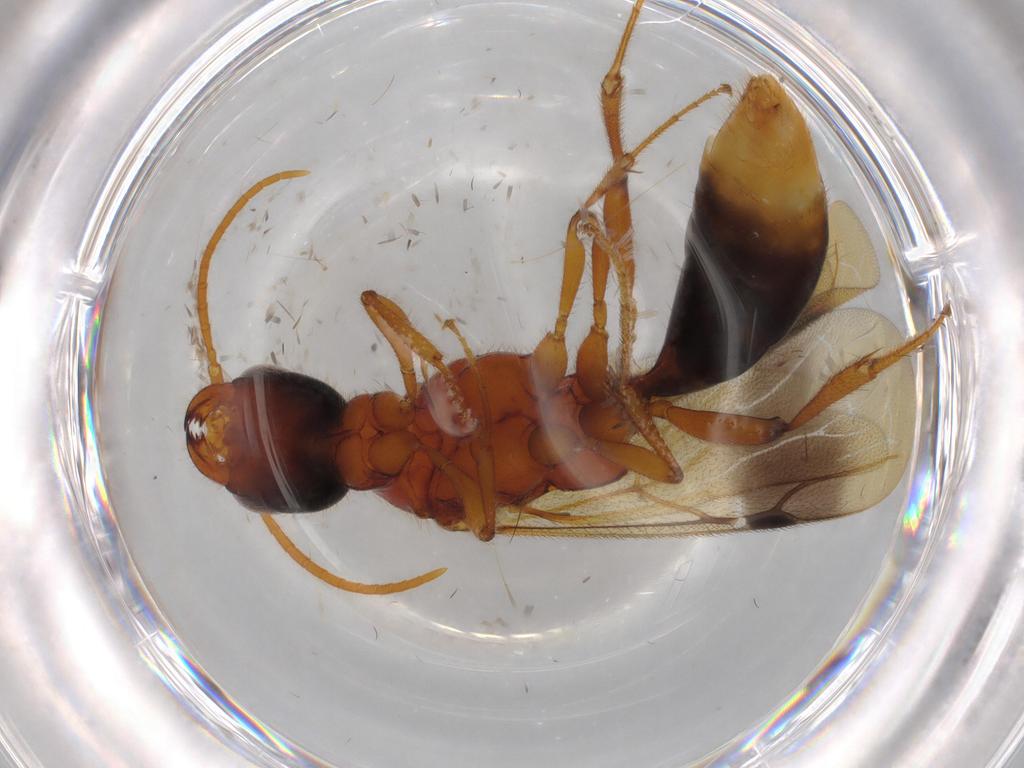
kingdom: Animalia
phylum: Arthropoda
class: Insecta
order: Hymenoptera
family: Bethylidae
